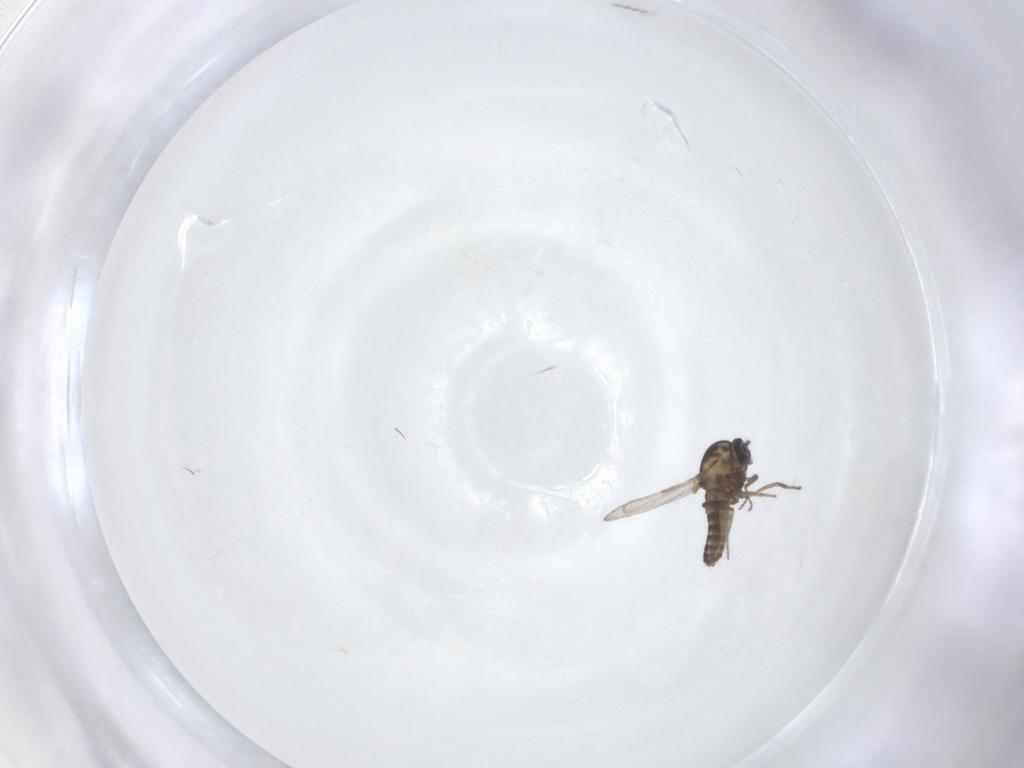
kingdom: Animalia
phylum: Arthropoda
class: Insecta
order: Diptera
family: Ceratopogonidae
